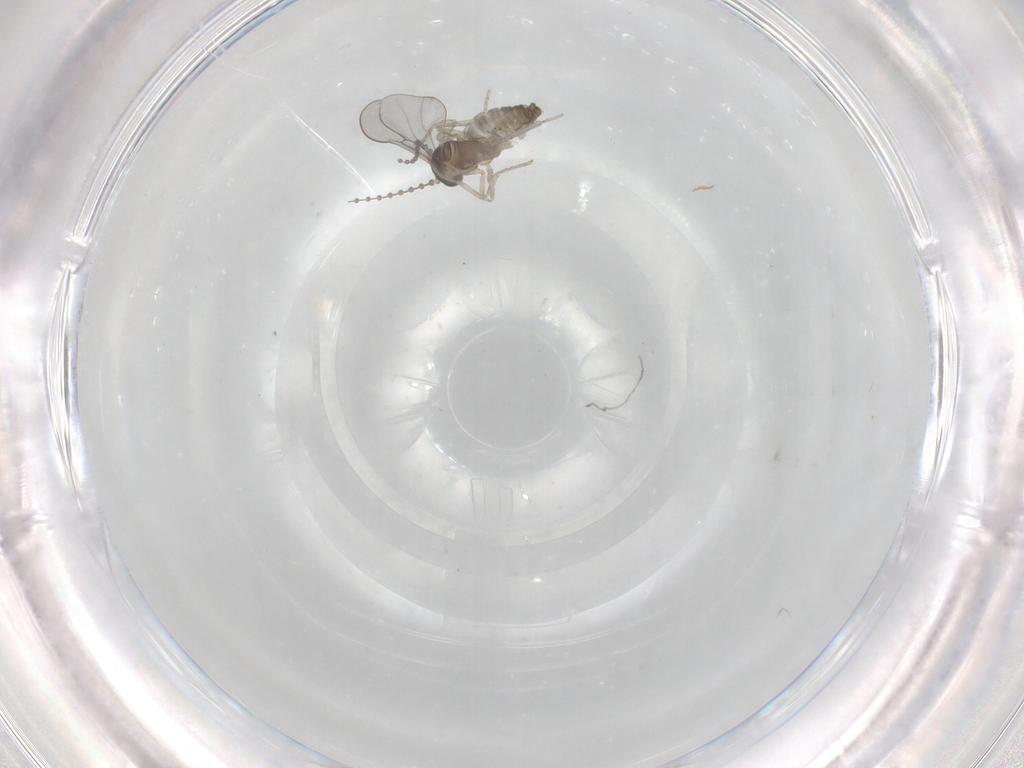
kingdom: Animalia
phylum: Arthropoda
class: Insecta
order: Diptera
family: Cecidomyiidae
